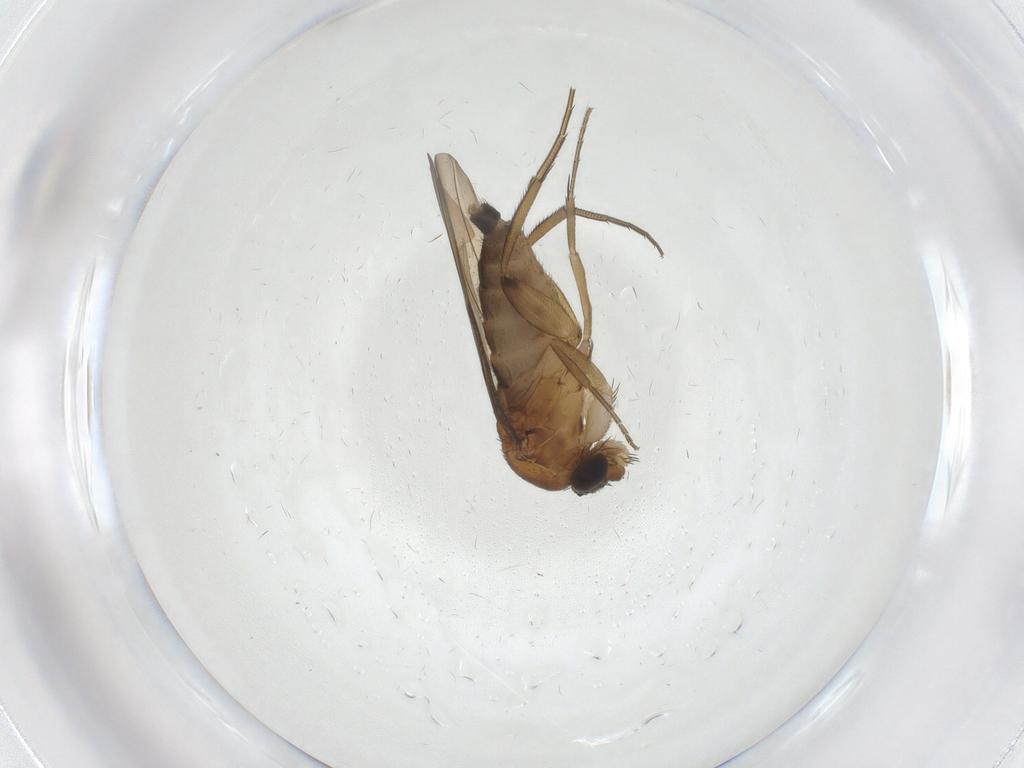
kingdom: Animalia
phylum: Arthropoda
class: Insecta
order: Diptera
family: Phoridae
